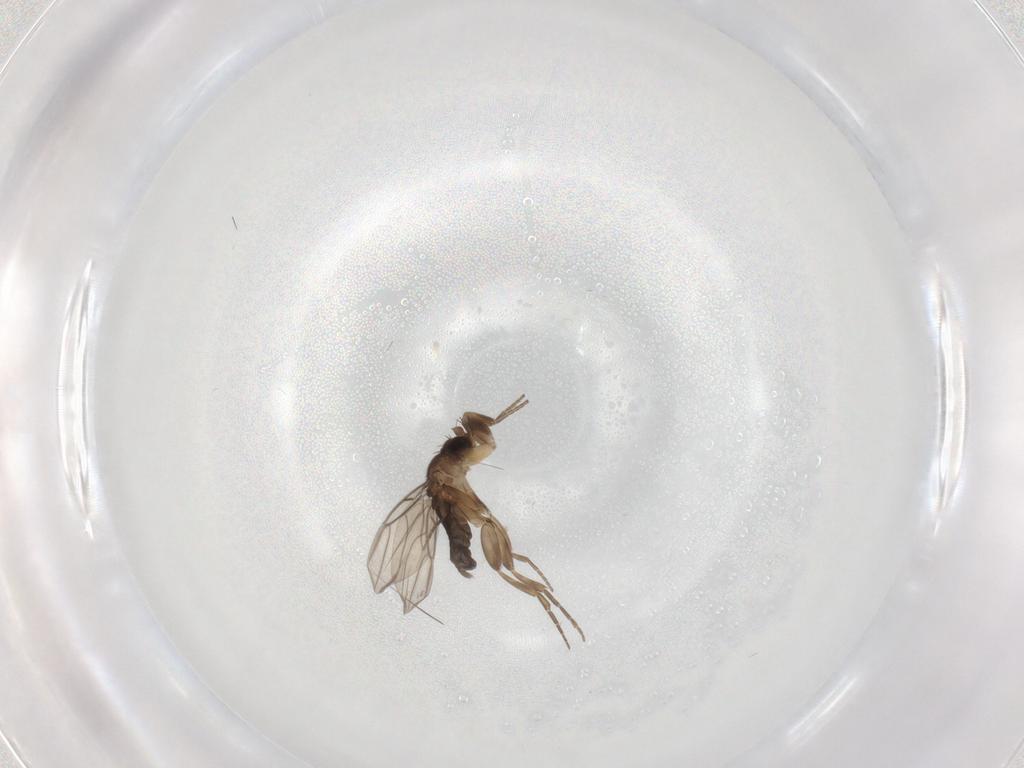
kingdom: Animalia
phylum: Arthropoda
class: Insecta
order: Diptera
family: Phoridae
